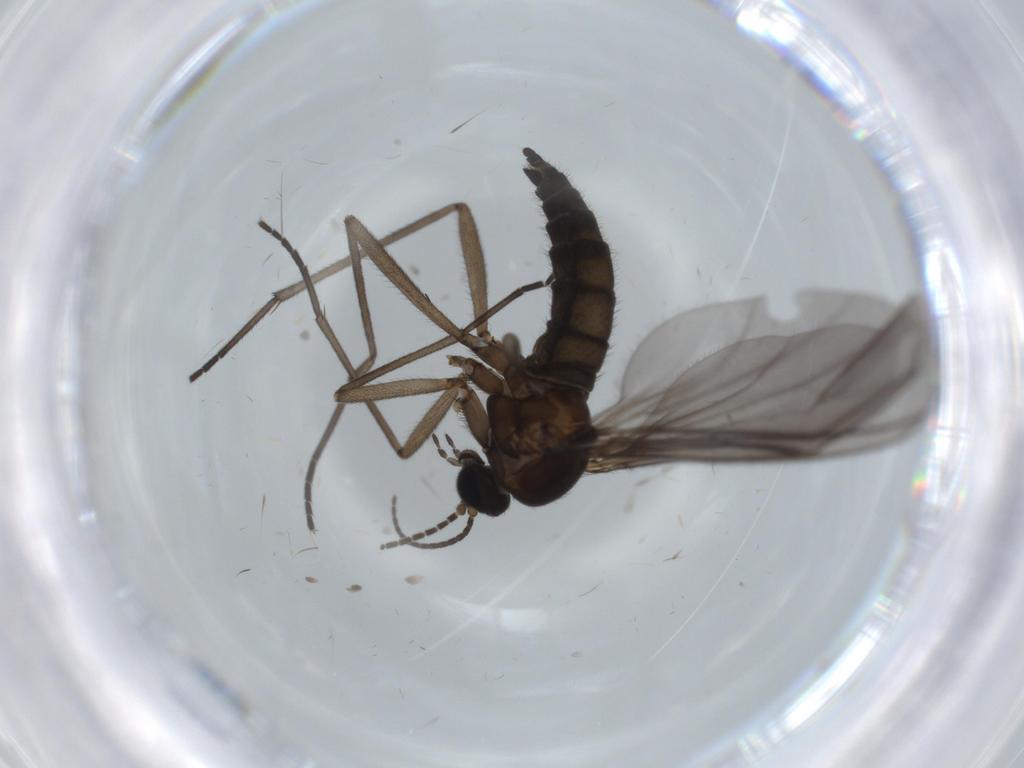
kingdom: Animalia
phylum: Arthropoda
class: Insecta
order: Diptera
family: Sciaridae
